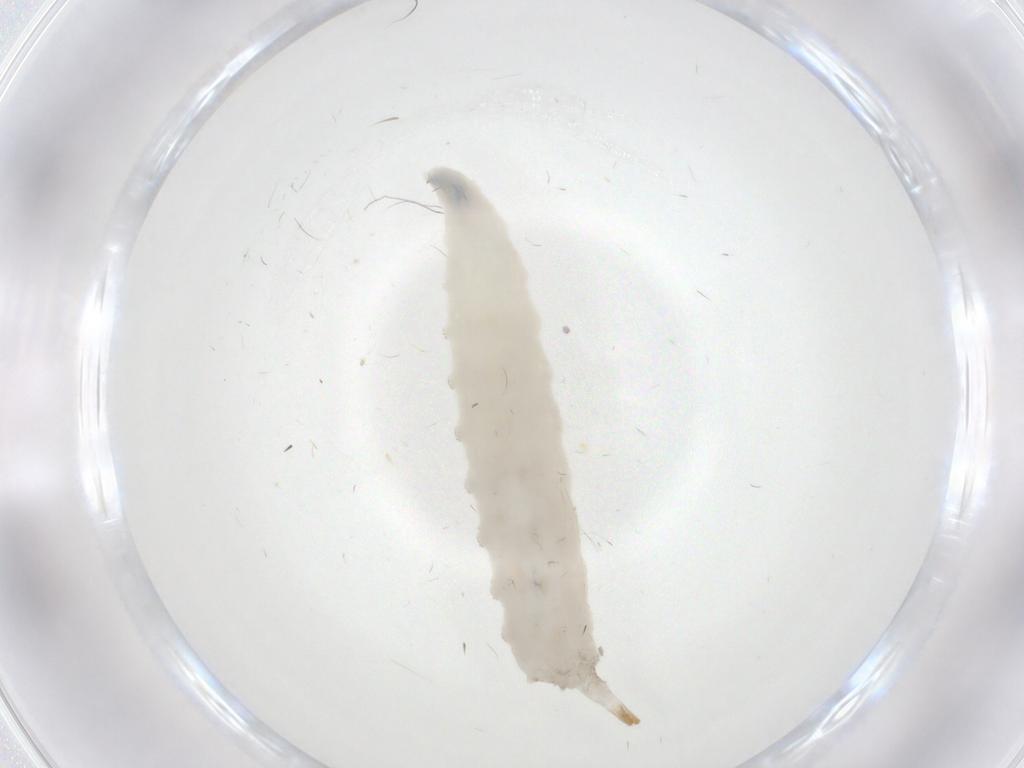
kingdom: Animalia
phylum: Arthropoda
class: Insecta
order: Diptera
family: Drosophilidae
